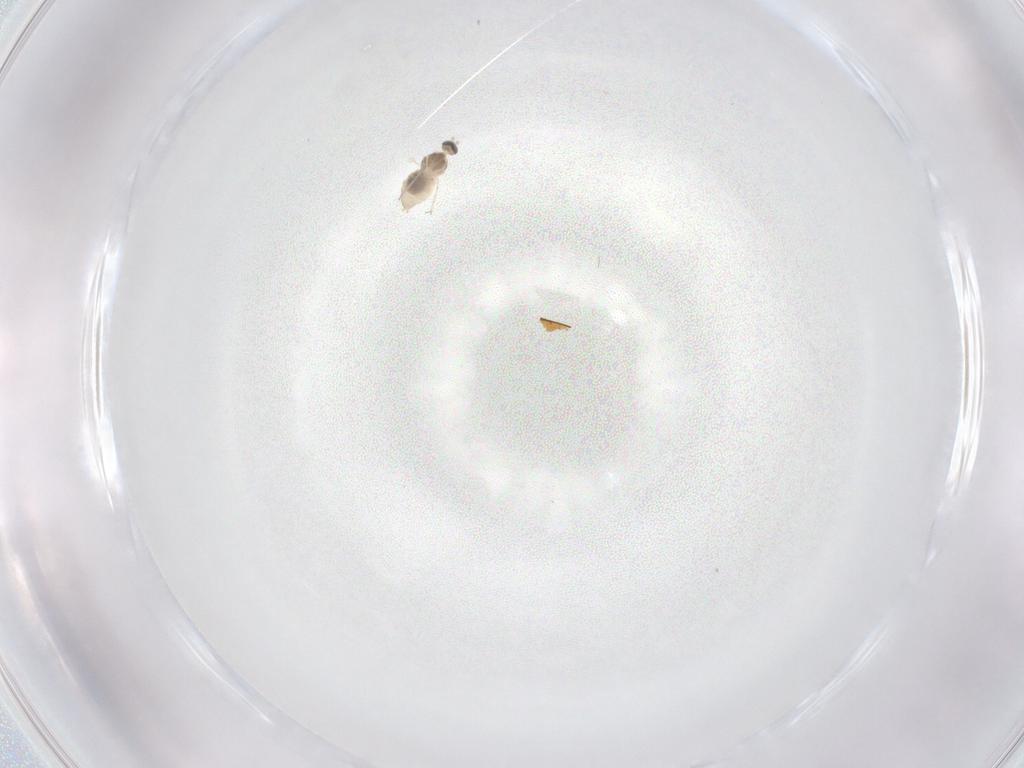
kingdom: Animalia
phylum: Arthropoda
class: Insecta
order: Diptera
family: Cecidomyiidae
